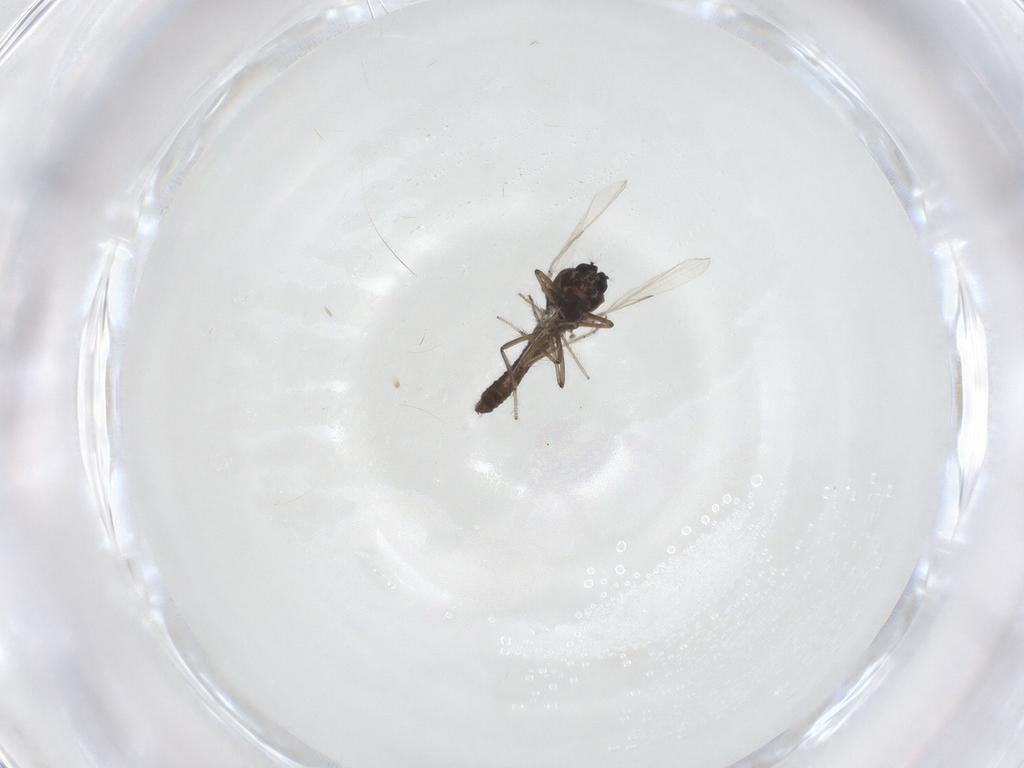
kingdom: Animalia
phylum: Arthropoda
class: Insecta
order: Diptera
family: Ceratopogonidae
